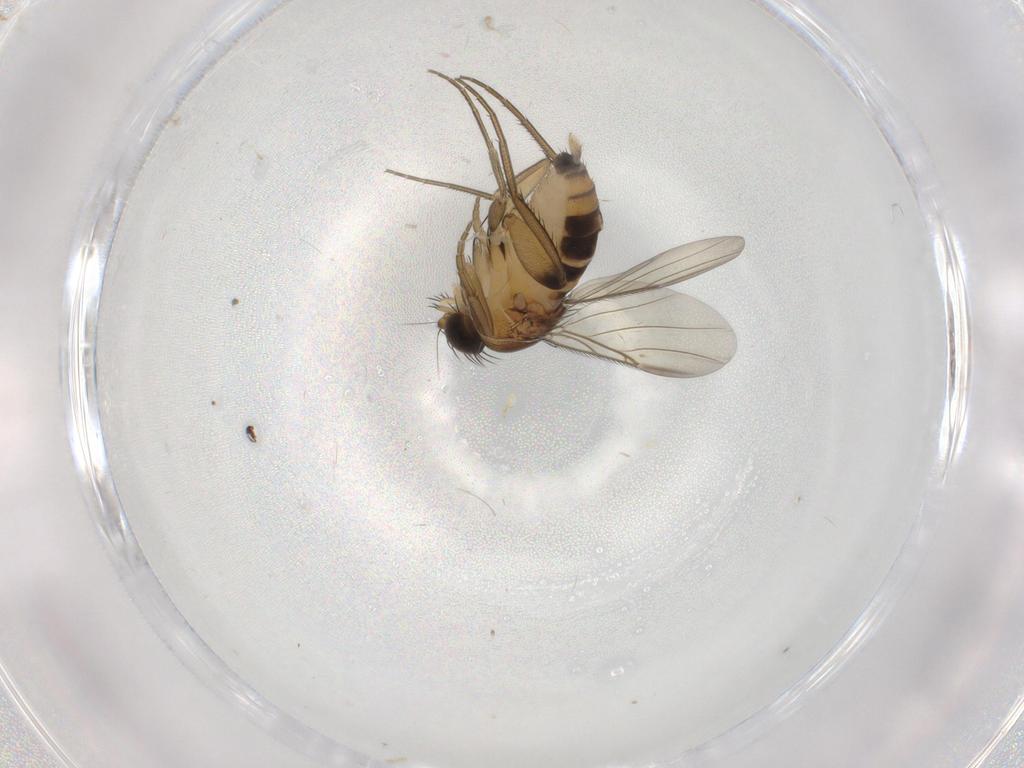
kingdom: Animalia
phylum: Arthropoda
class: Insecta
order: Diptera
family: Phoridae
